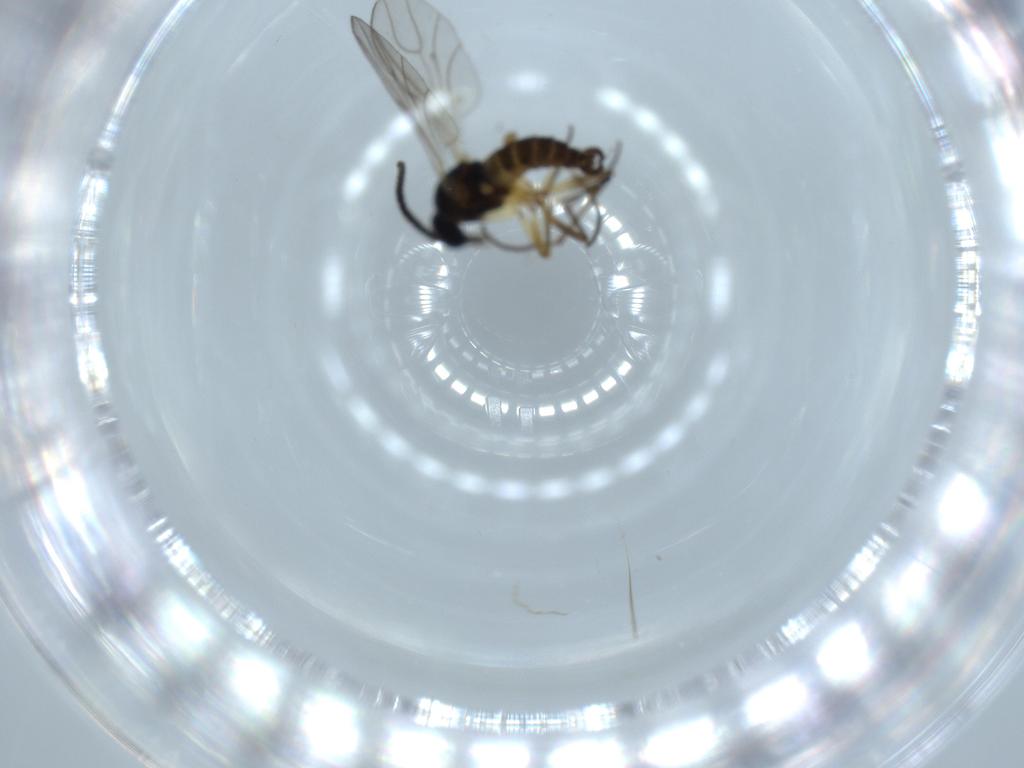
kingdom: Animalia
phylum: Arthropoda
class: Insecta
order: Diptera
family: Sciaridae
